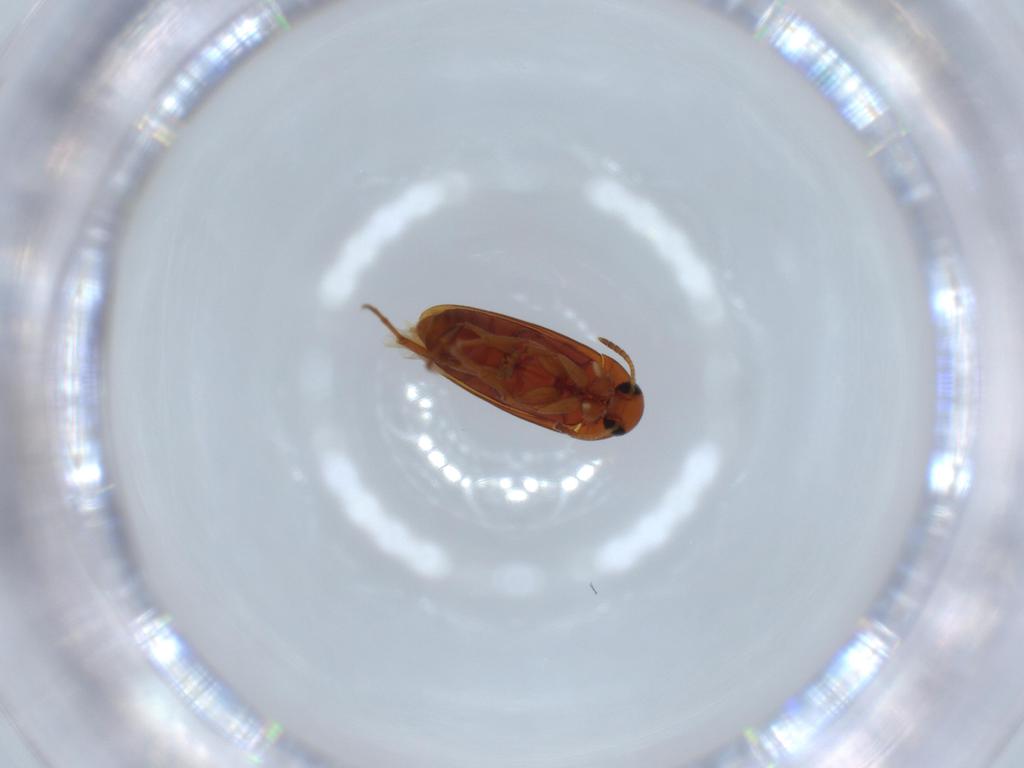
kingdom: Animalia
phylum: Arthropoda
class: Insecta
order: Coleoptera
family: Scraptiidae
